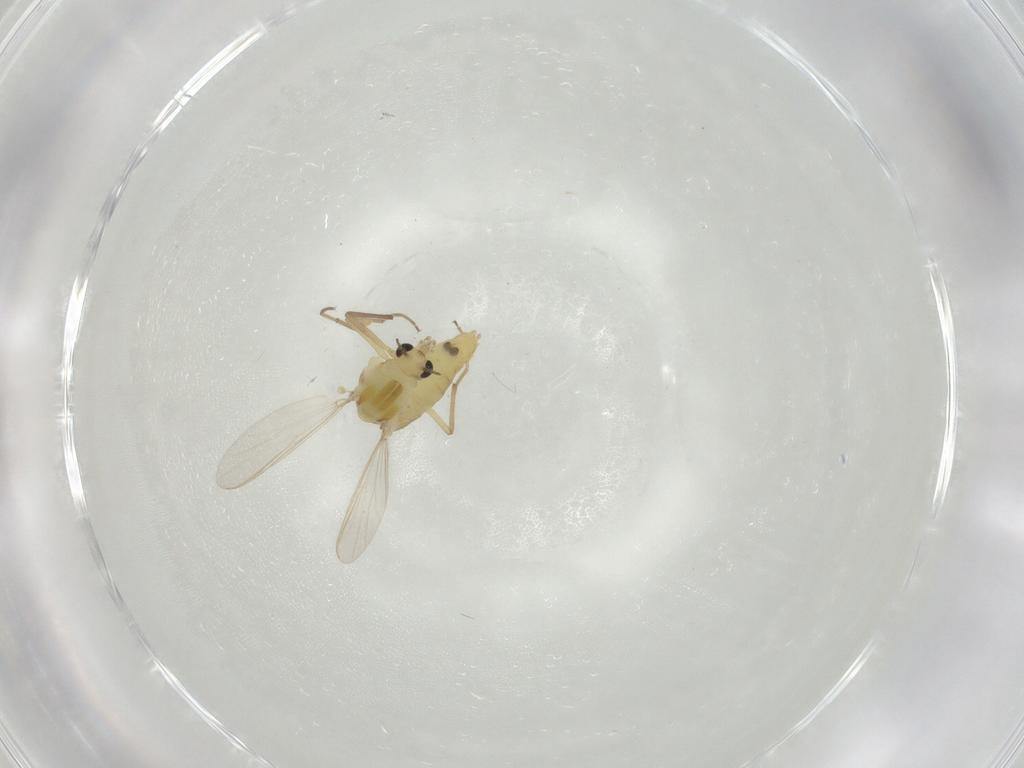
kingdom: Animalia
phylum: Arthropoda
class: Insecta
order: Diptera
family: Chironomidae
